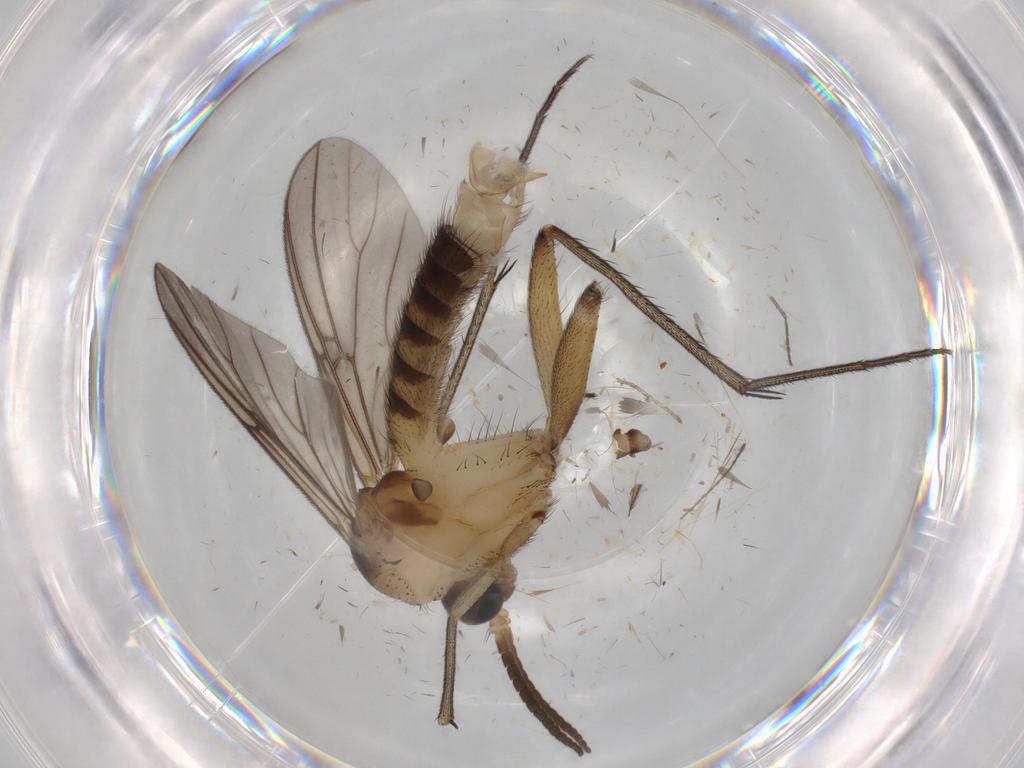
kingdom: Animalia
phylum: Arthropoda
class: Insecta
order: Diptera
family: Mycetophilidae
